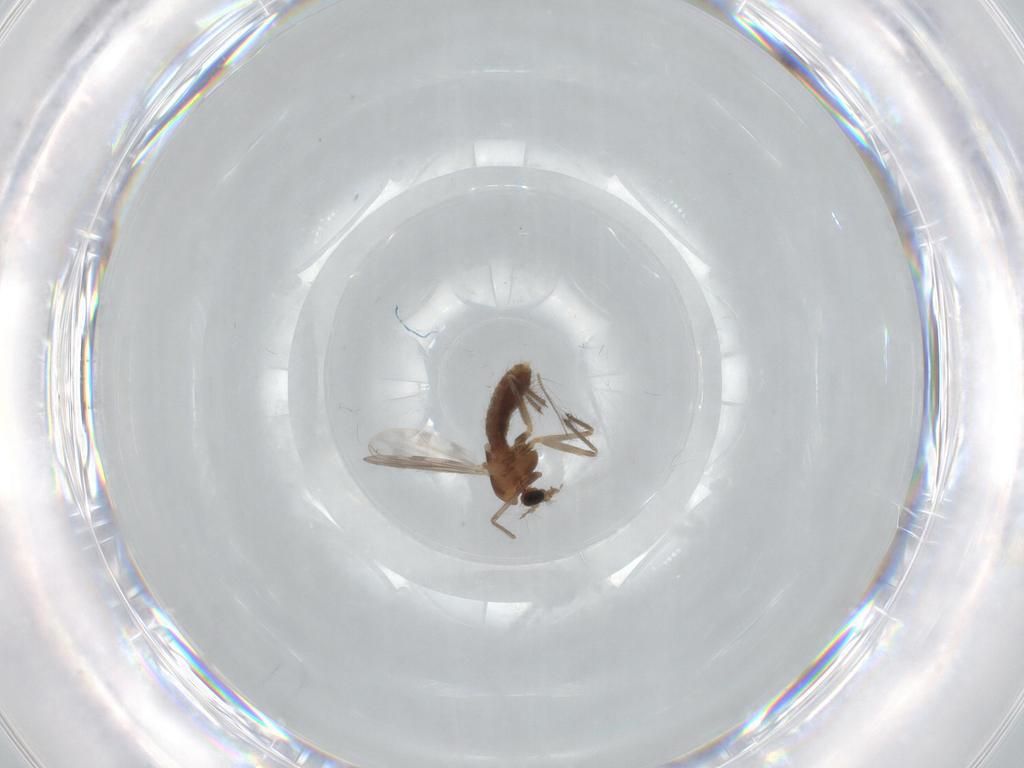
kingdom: Animalia
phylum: Arthropoda
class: Insecta
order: Diptera
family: Chironomidae
